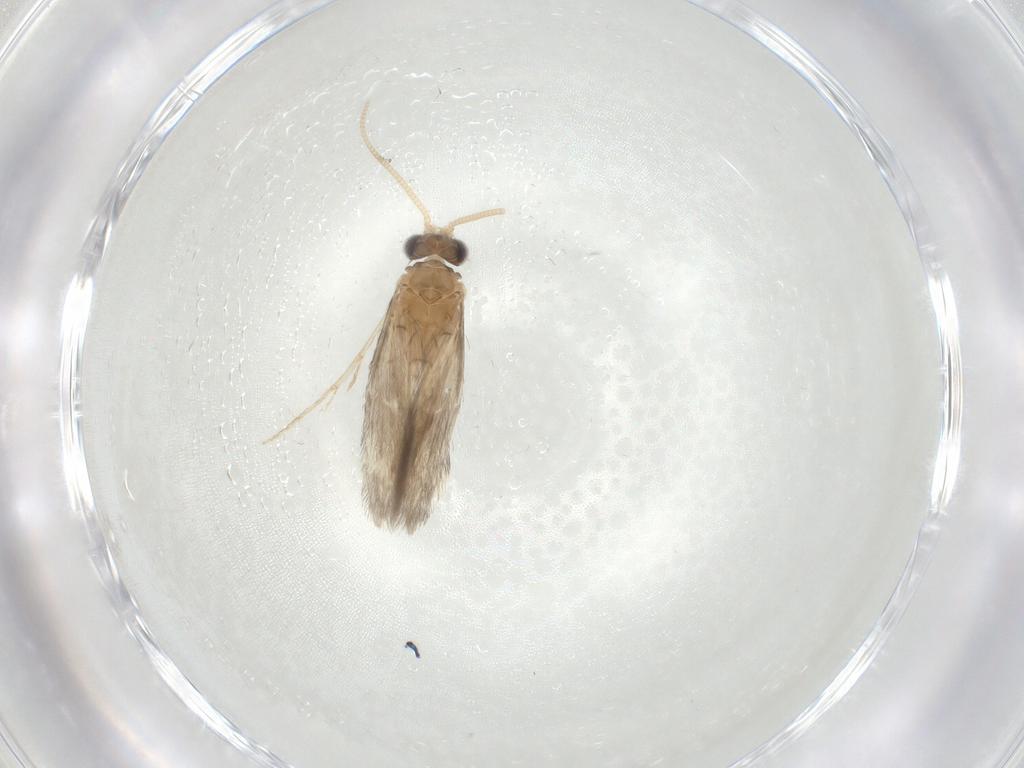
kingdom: Animalia
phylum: Arthropoda
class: Insecta
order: Trichoptera
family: Hydroptilidae
